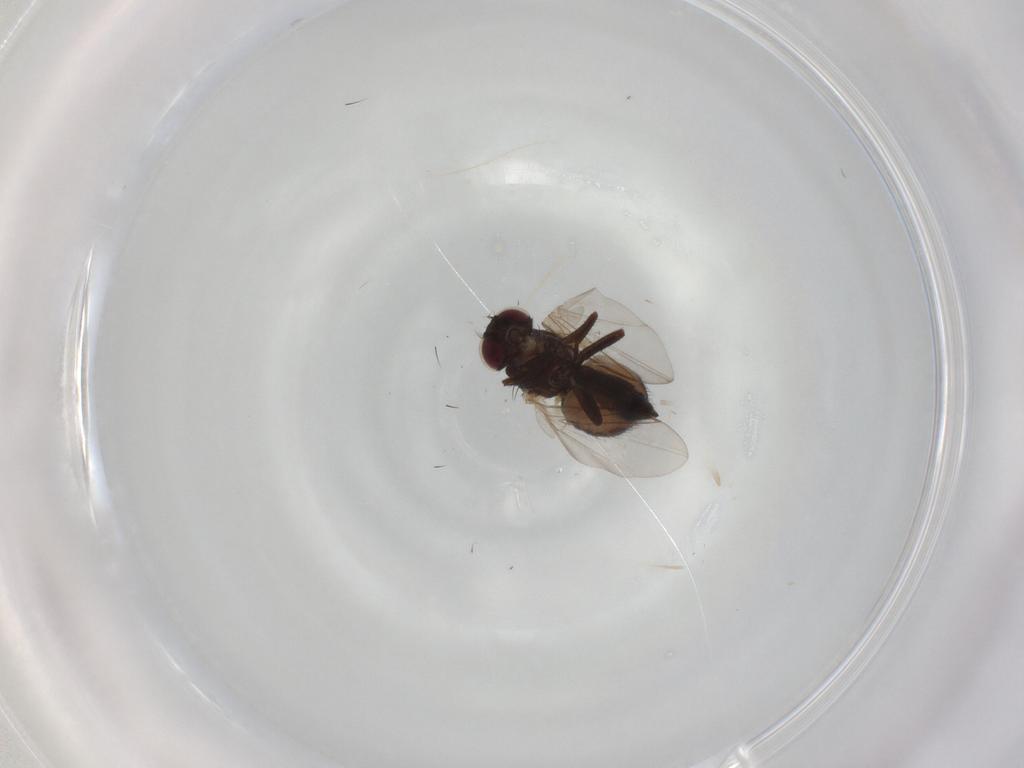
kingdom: Animalia
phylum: Arthropoda
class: Insecta
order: Diptera
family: Agromyzidae
